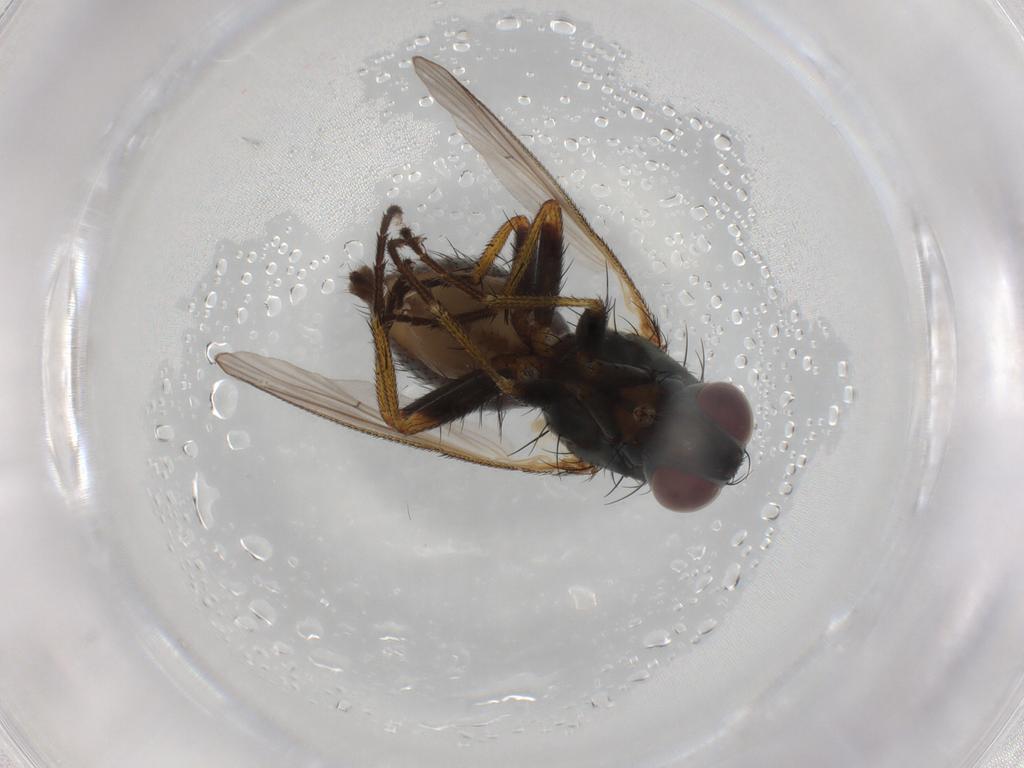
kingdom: Animalia
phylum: Arthropoda
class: Insecta
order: Diptera
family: Muscidae
